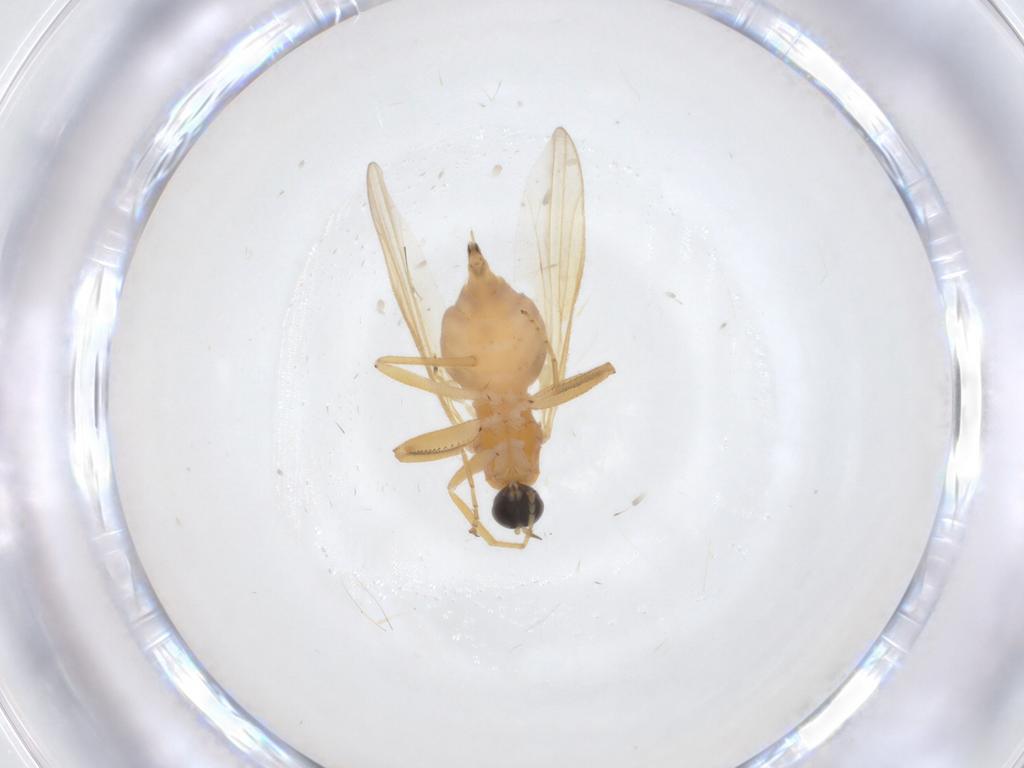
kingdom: Animalia
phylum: Arthropoda
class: Insecta
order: Diptera
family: Hybotidae
